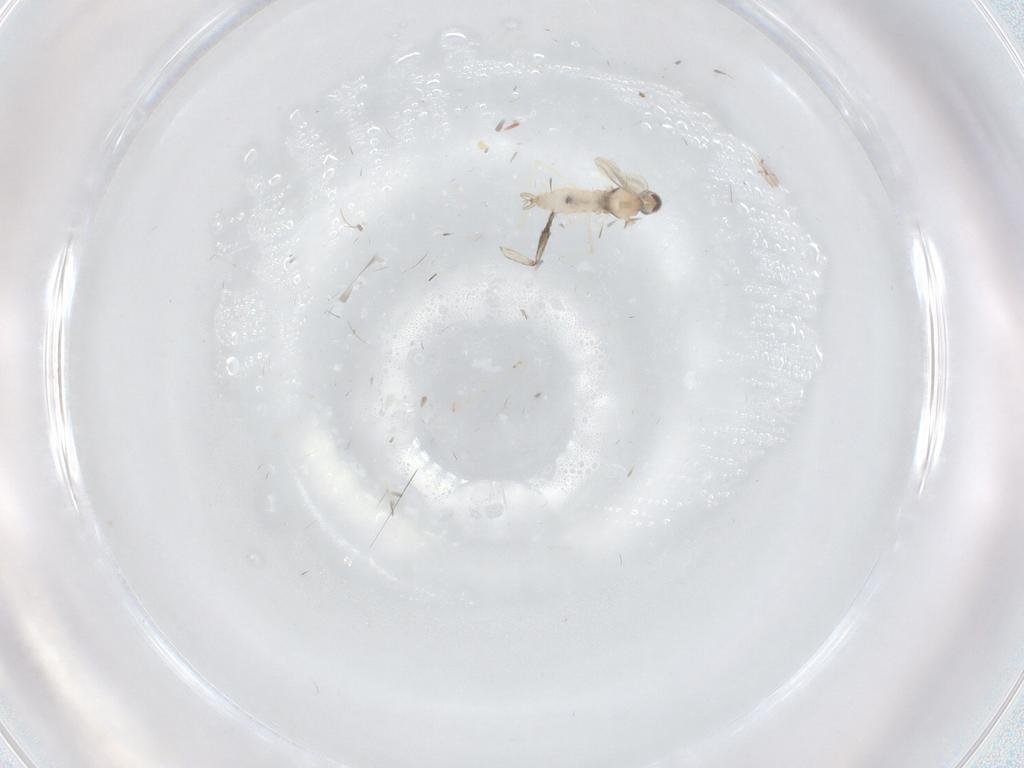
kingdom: Animalia
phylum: Arthropoda
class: Insecta
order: Diptera
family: Cecidomyiidae
